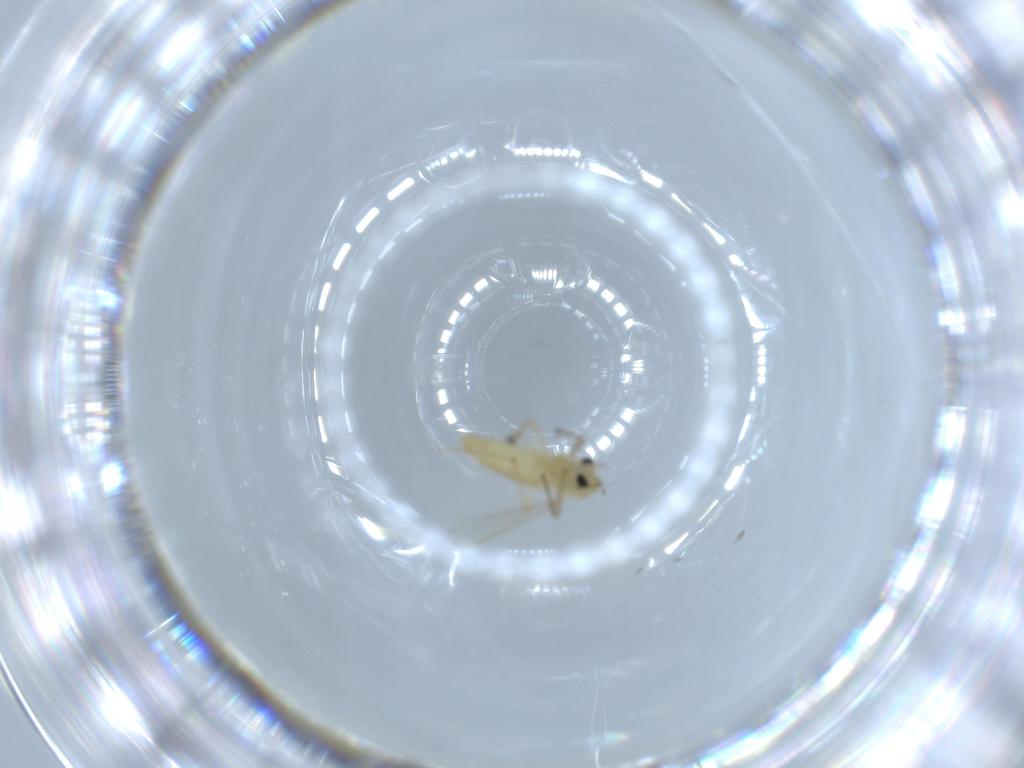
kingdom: Animalia
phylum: Arthropoda
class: Insecta
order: Diptera
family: Chironomidae
